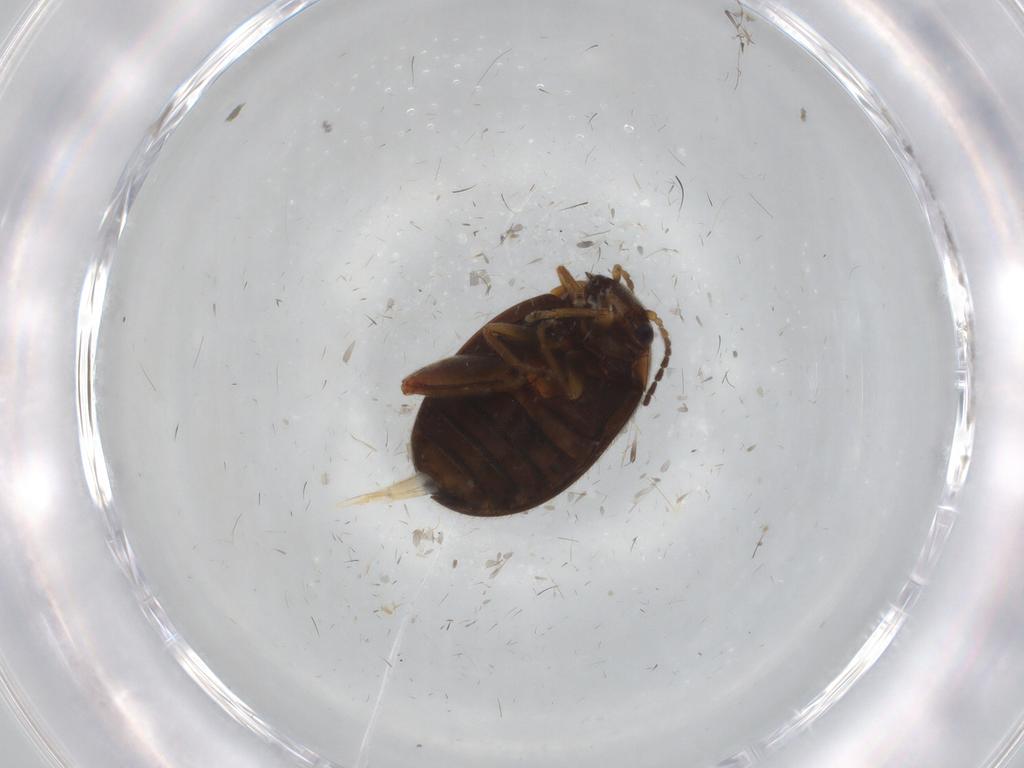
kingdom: Animalia
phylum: Arthropoda
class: Insecta
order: Coleoptera
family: Scirtidae
